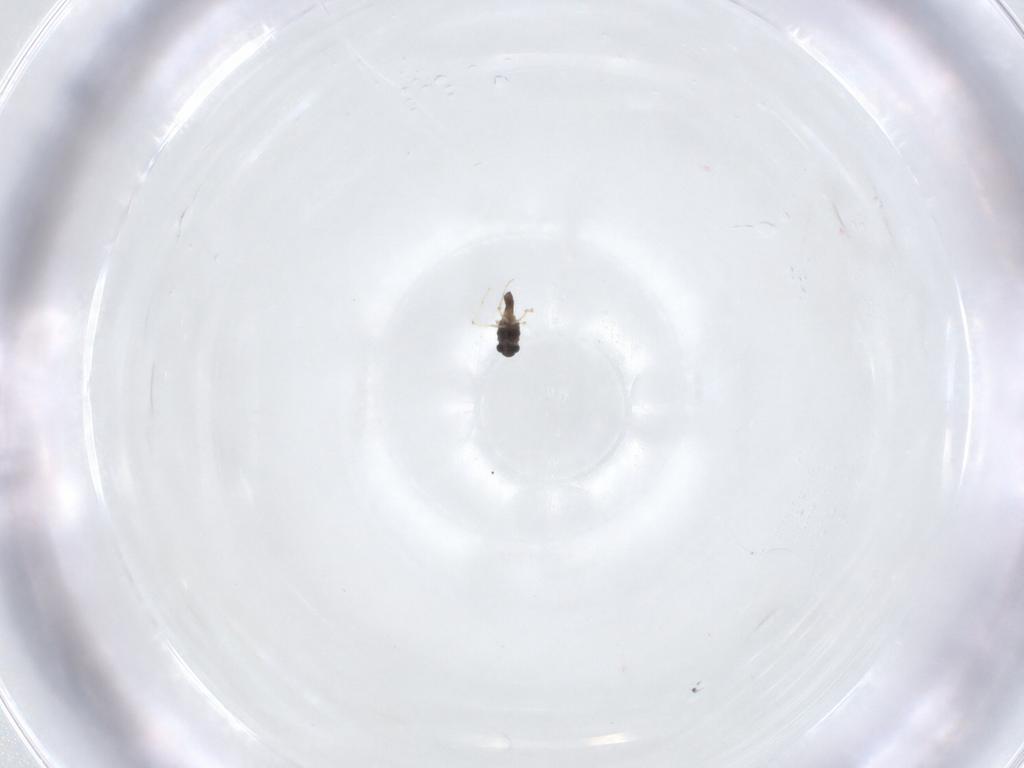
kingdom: Animalia
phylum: Arthropoda
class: Insecta
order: Diptera
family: Chironomidae
